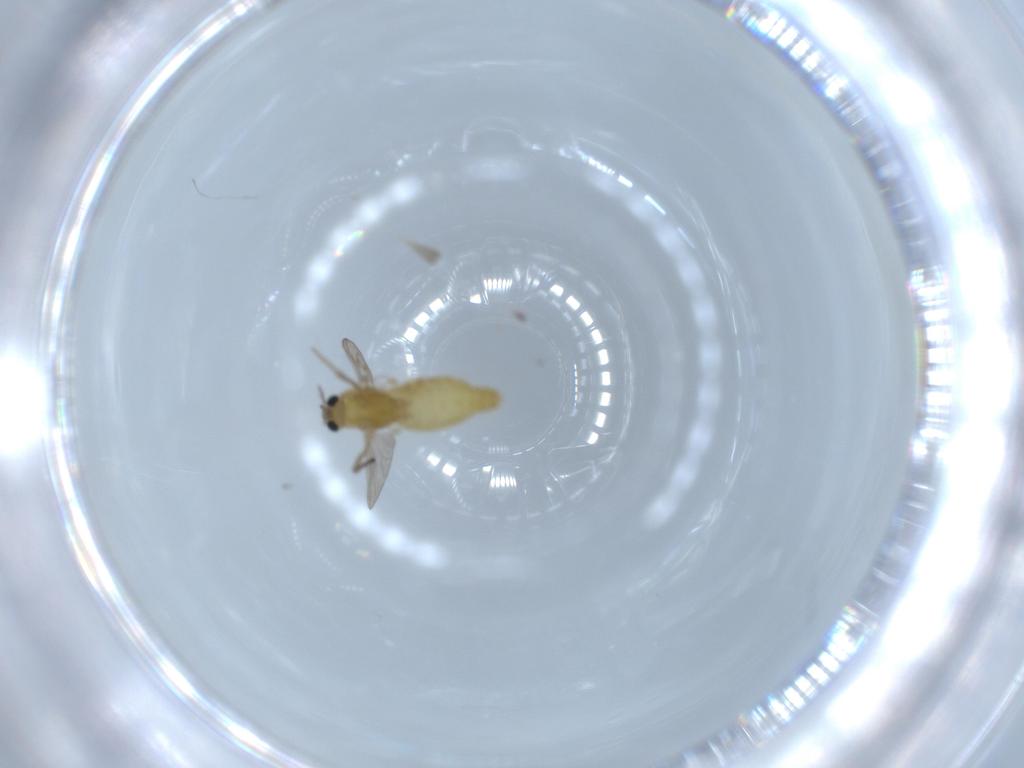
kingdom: Animalia
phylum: Arthropoda
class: Insecta
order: Diptera
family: Chironomidae
